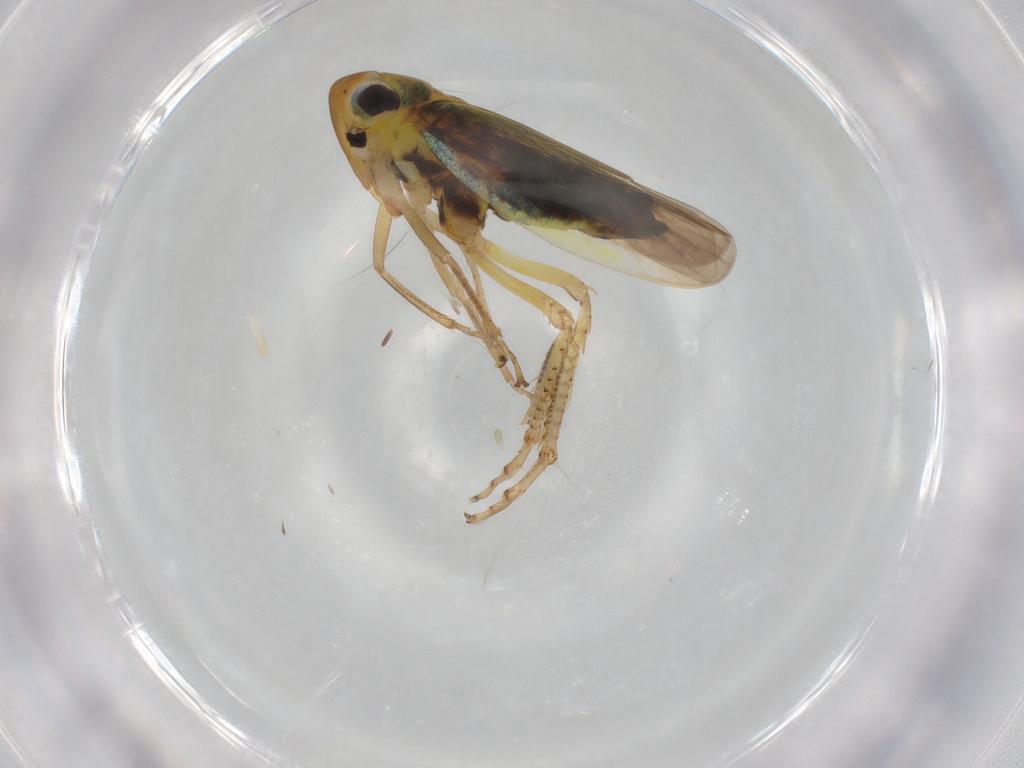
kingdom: Animalia
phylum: Arthropoda
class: Insecta
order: Hemiptera
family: Cicadellidae
